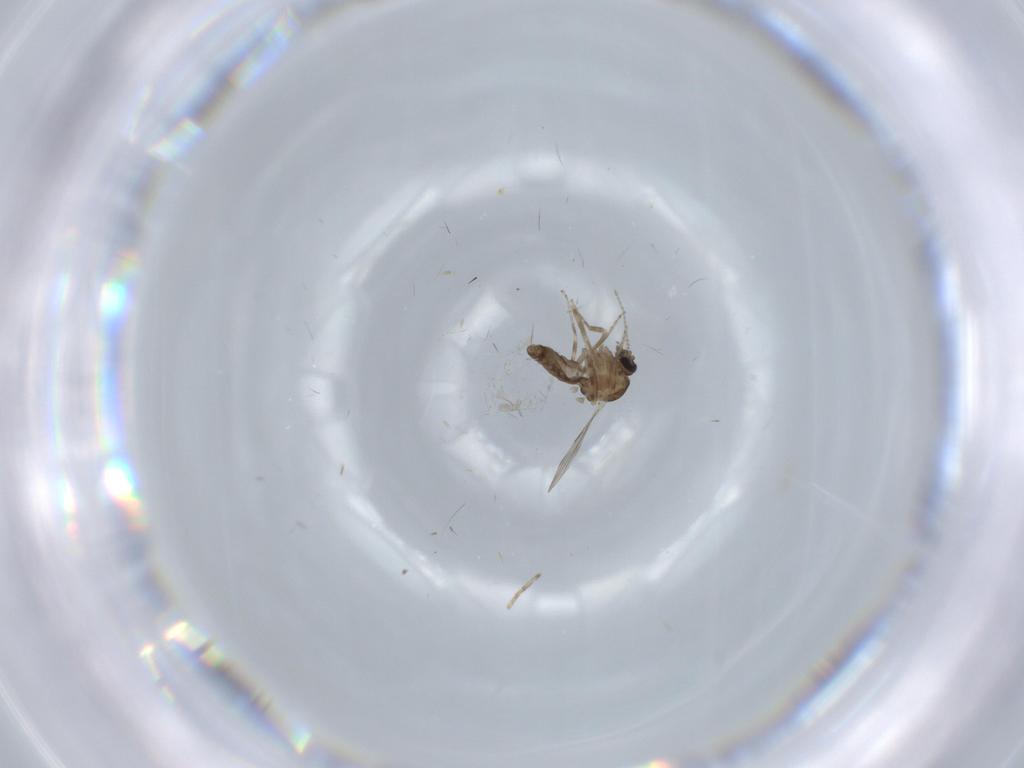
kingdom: Animalia
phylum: Arthropoda
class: Insecta
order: Diptera
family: Ceratopogonidae
